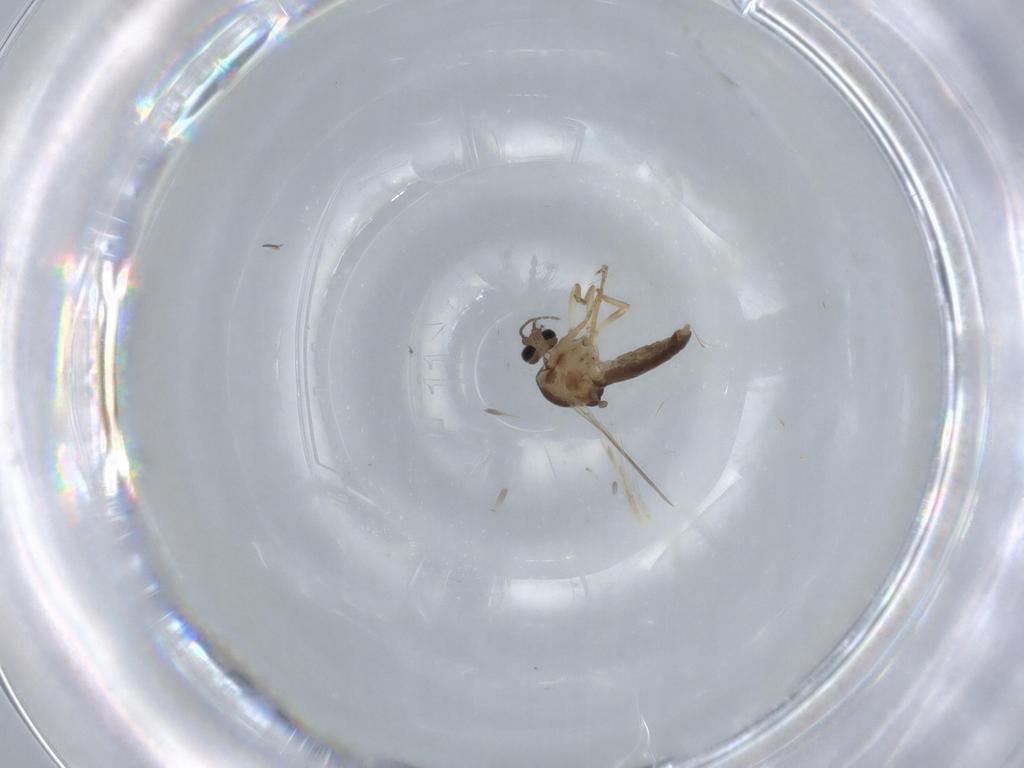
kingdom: Animalia
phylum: Arthropoda
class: Insecta
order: Diptera
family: Ceratopogonidae
